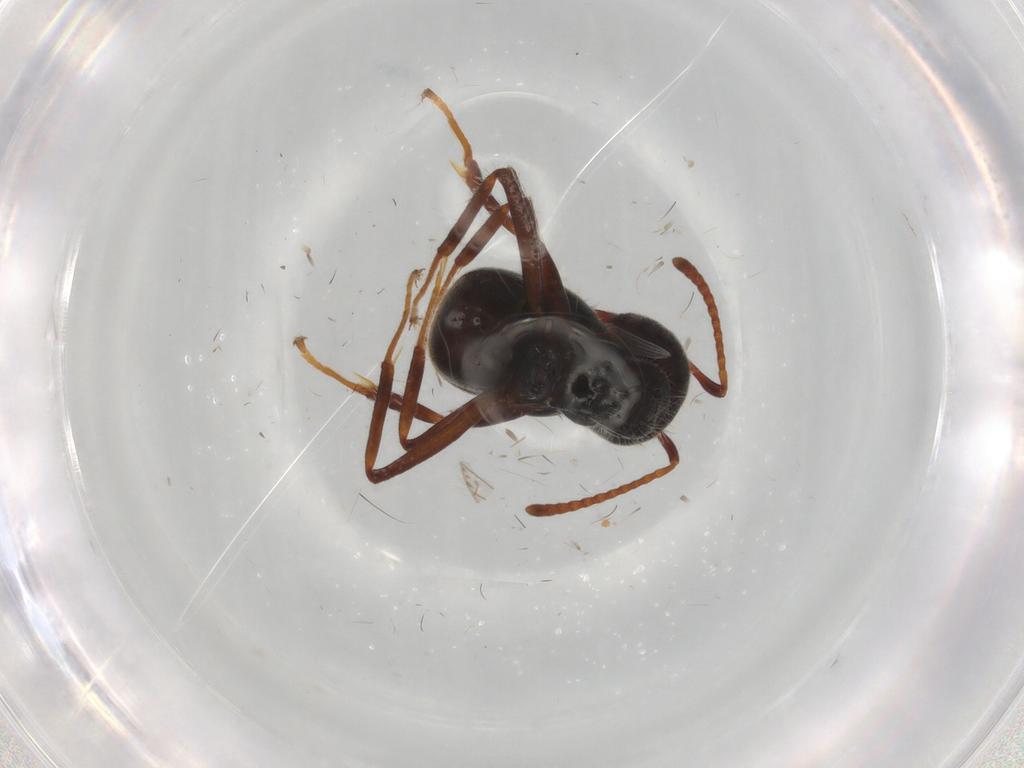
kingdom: Animalia
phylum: Arthropoda
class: Insecta
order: Hymenoptera
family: Formicidae
